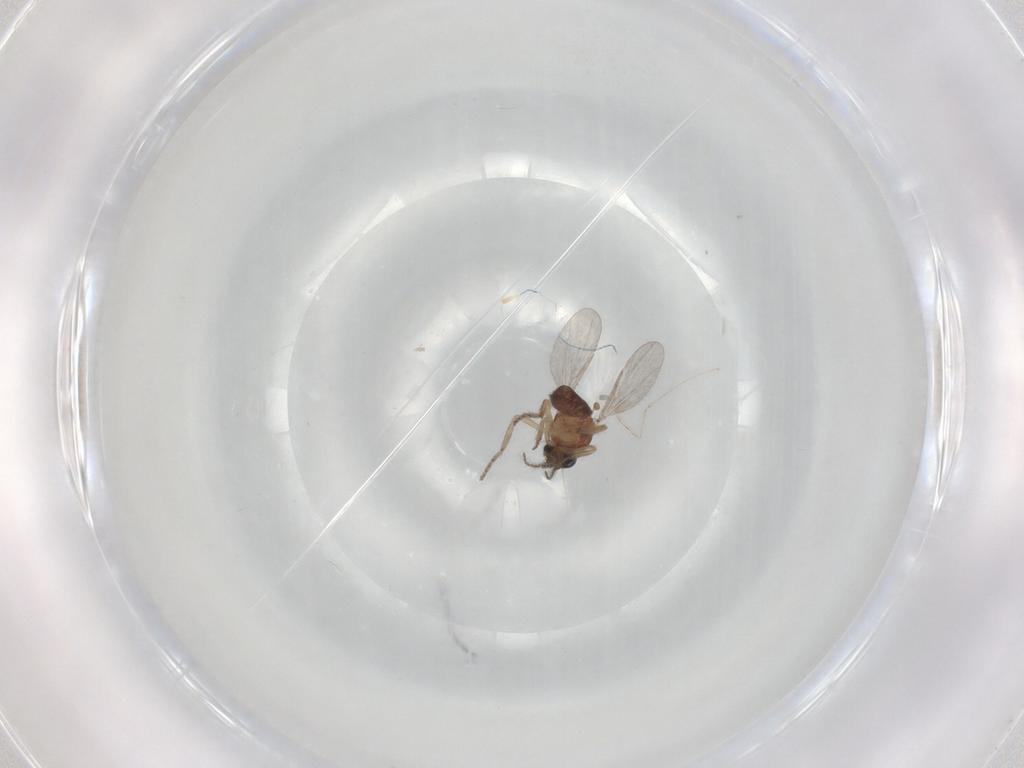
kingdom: Animalia
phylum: Arthropoda
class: Insecta
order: Diptera
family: Ceratopogonidae
